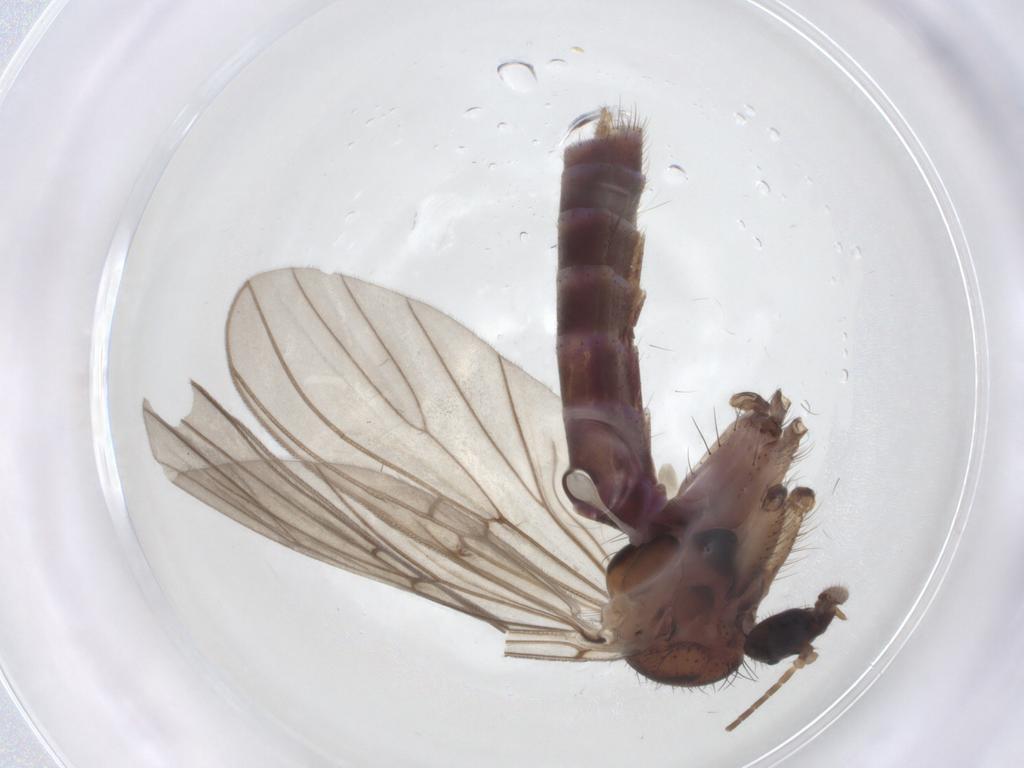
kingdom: Animalia
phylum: Arthropoda
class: Insecta
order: Diptera
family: Mycetophilidae
